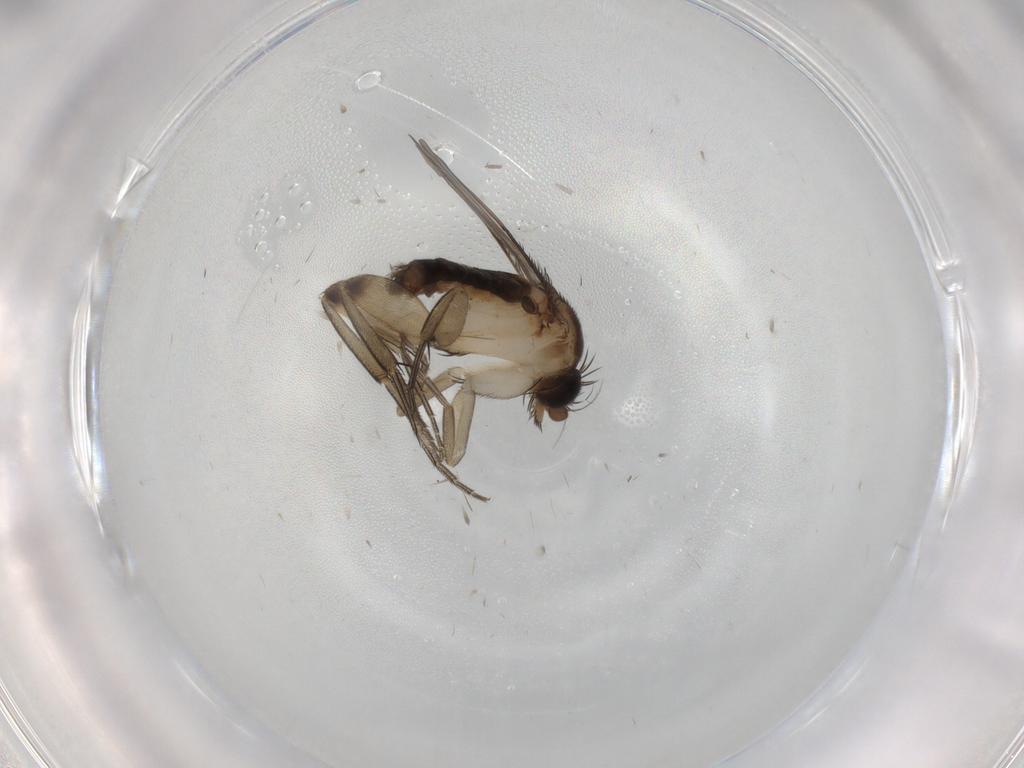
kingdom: Animalia
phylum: Arthropoda
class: Insecta
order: Diptera
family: Phoridae
